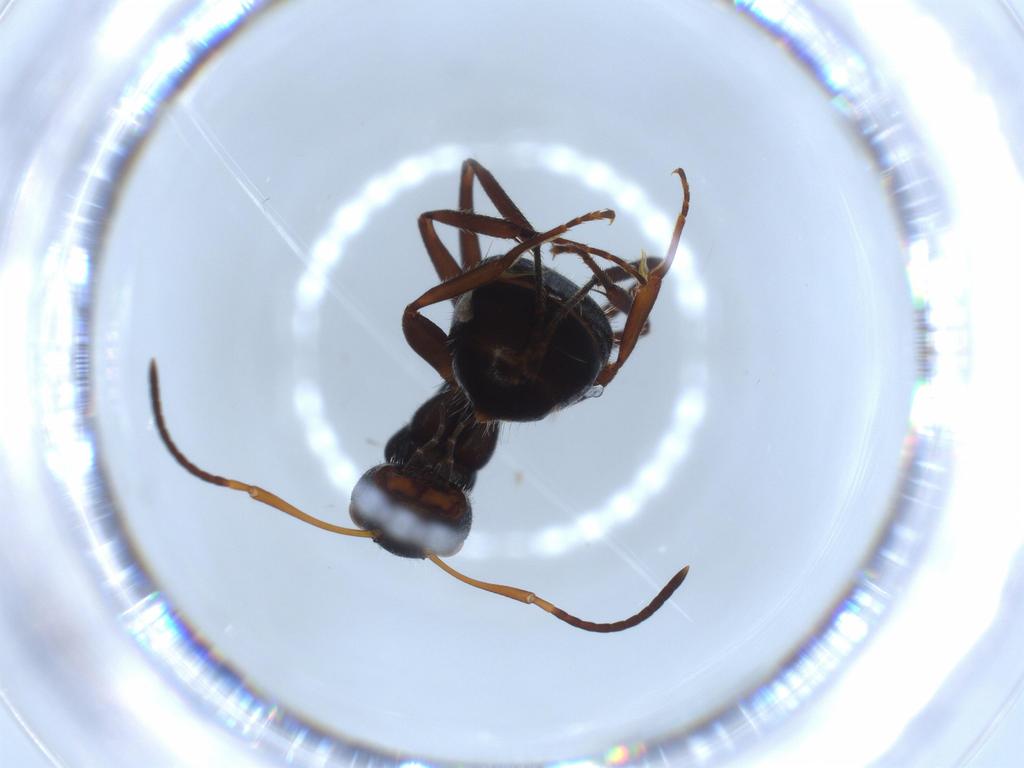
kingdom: Animalia
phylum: Arthropoda
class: Insecta
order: Hymenoptera
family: Formicidae
